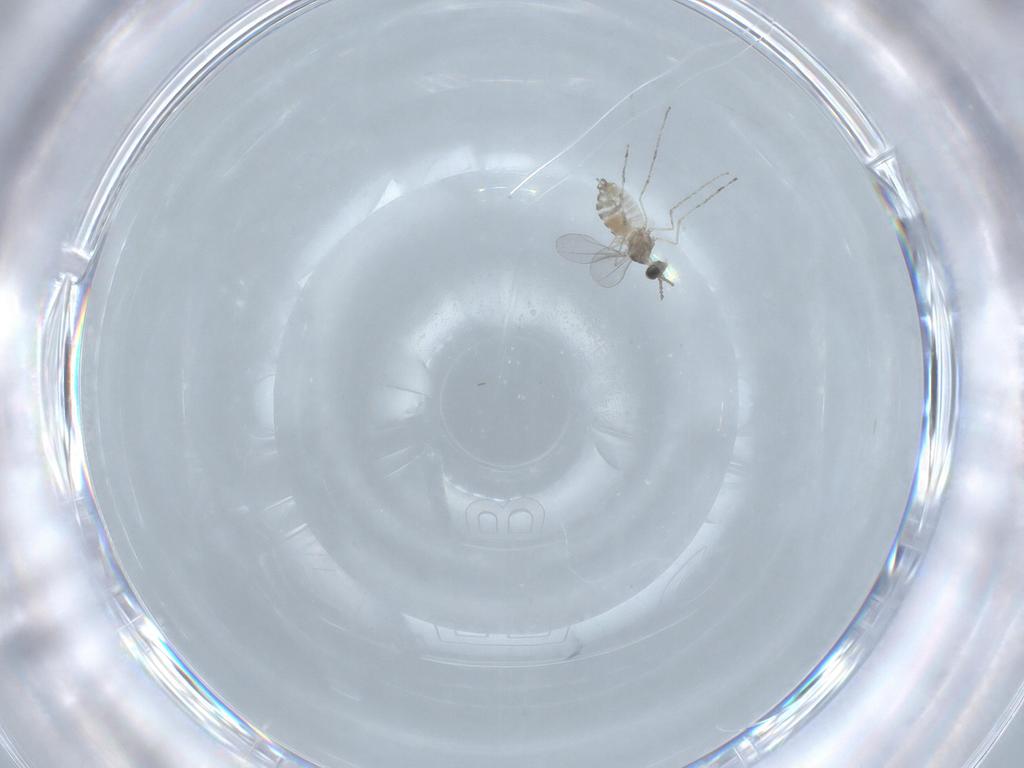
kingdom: Animalia
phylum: Arthropoda
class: Insecta
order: Diptera
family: Cecidomyiidae
